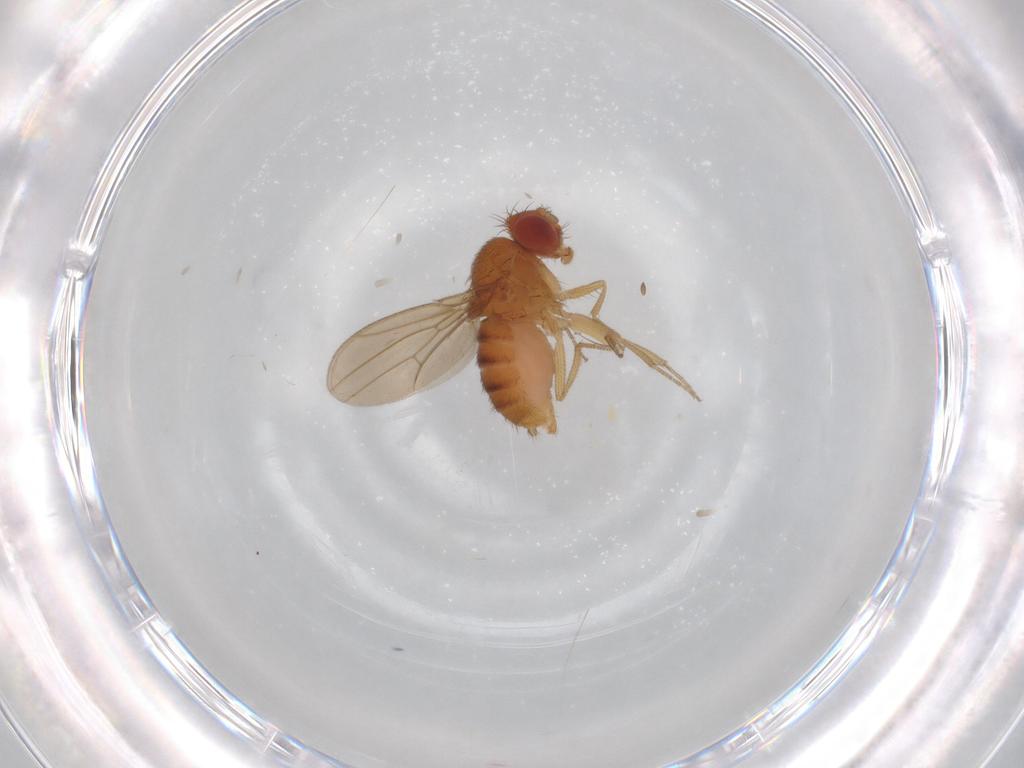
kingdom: Animalia
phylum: Arthropoda
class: Insecta
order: Diptera
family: Drosophilidae
